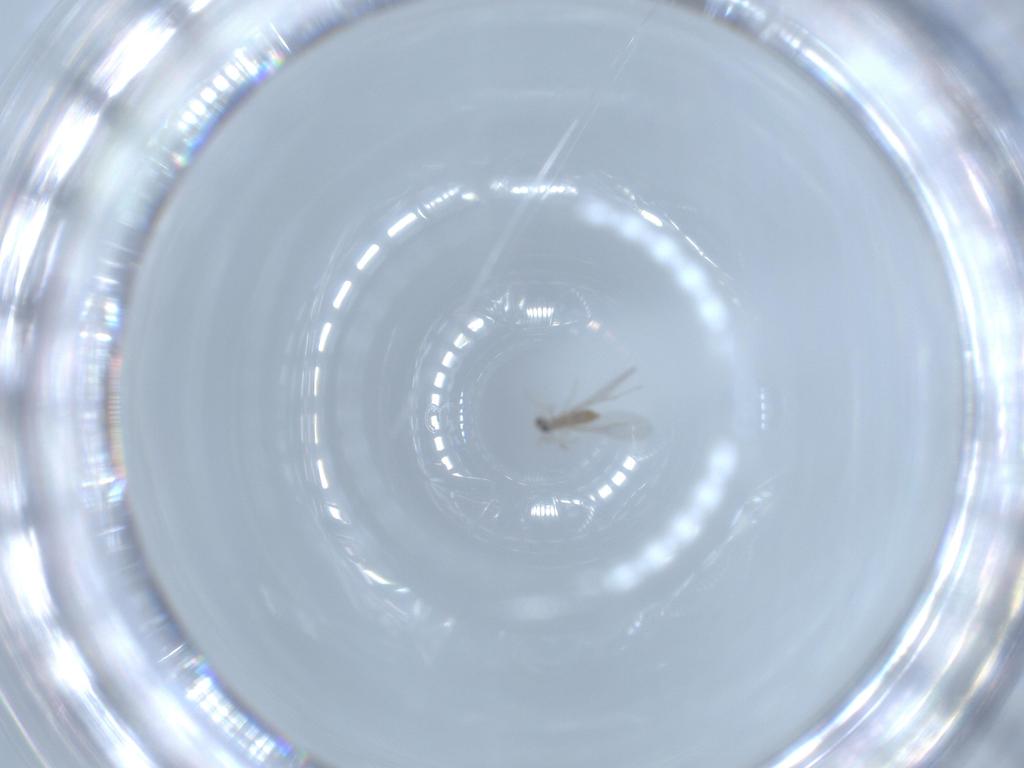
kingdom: Animalia
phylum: Arthropoda
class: Insecta
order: Diptera
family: Cecidomyiidae
